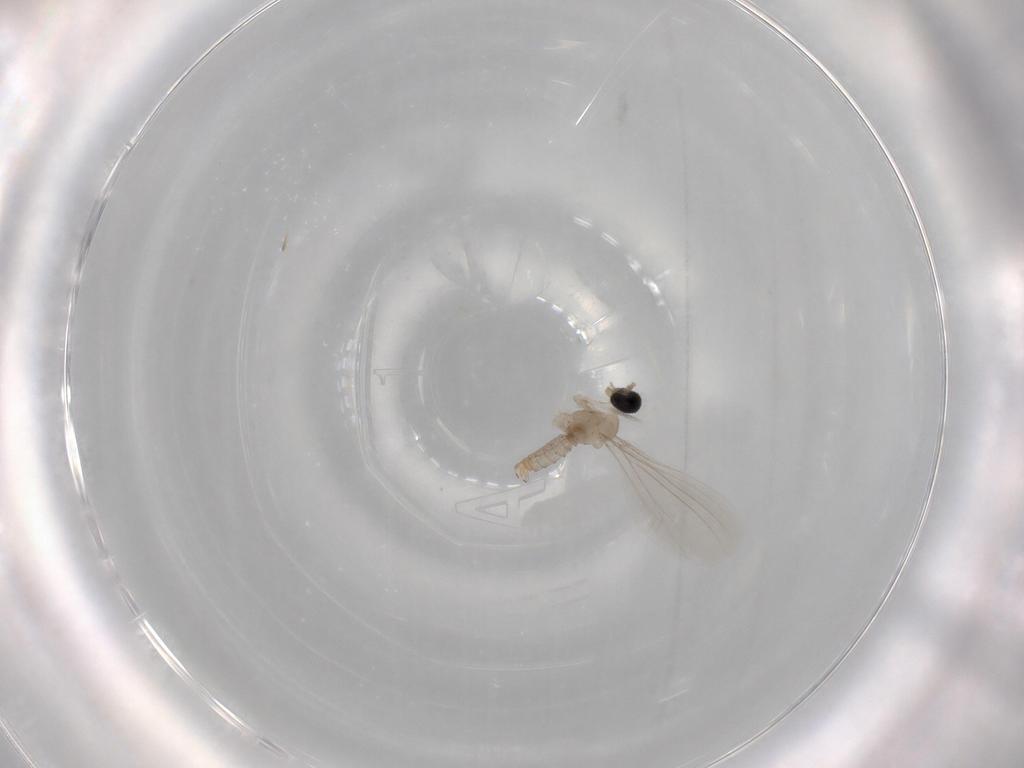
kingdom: Animalia
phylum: Arthropoda
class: Insecta
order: Diptera
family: Cecidomyiidae
